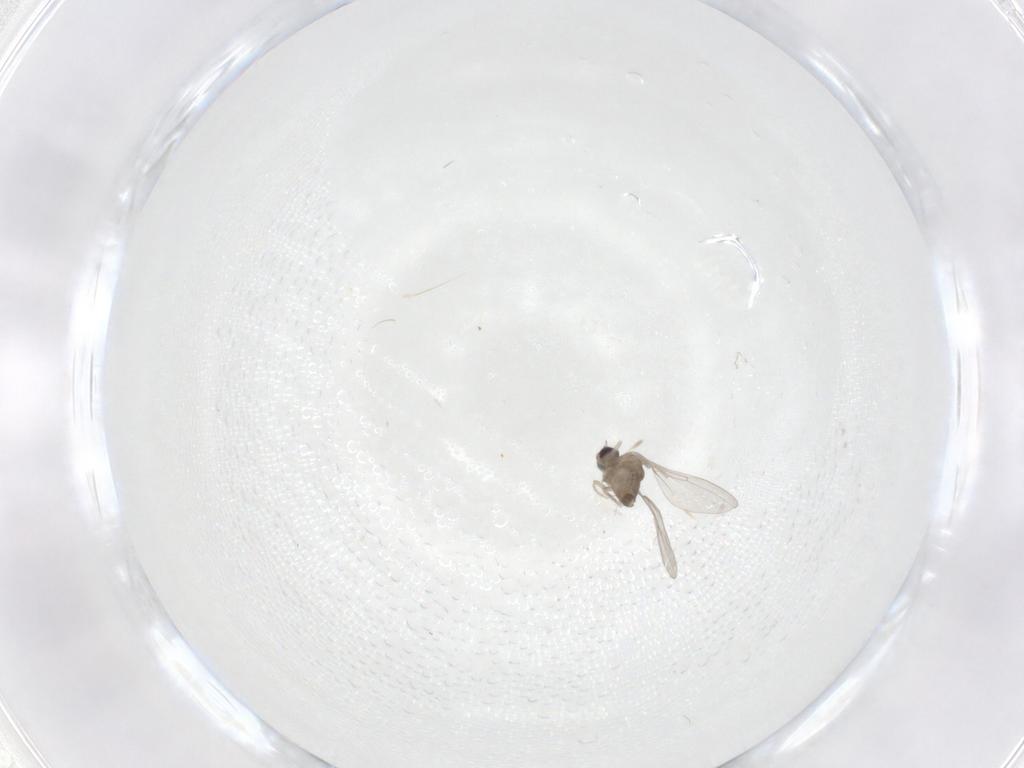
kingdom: Animalia
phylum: Arthropoda
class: Insecta
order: Diptera
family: Cecidomyiidae
